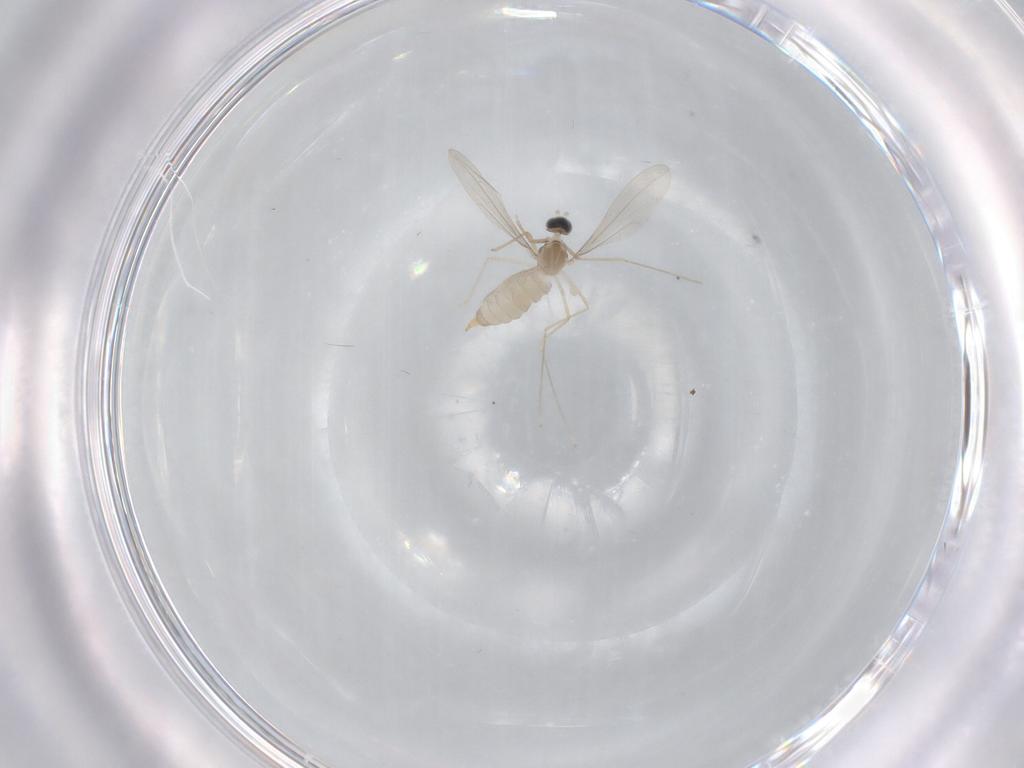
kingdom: Animalia
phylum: Arthropoda
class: Insecta
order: Diptera
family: Cecidomyiidae
